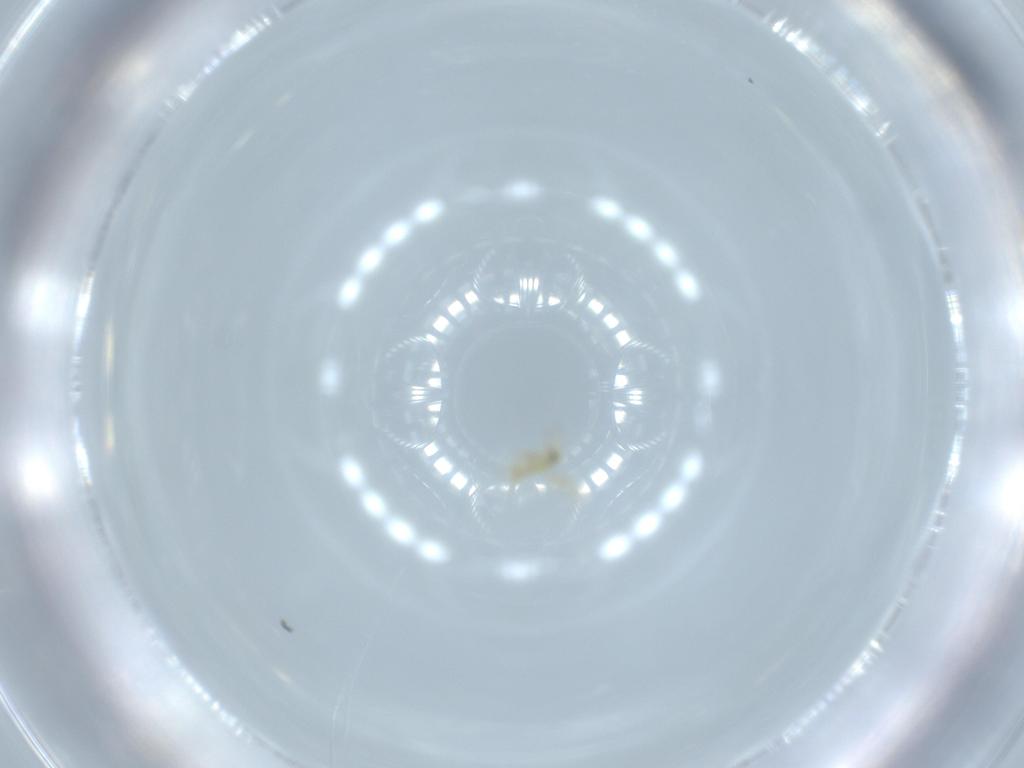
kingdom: Animalia
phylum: Arthropoda
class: Insecta
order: Hymenoptera
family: Aphelinidae
